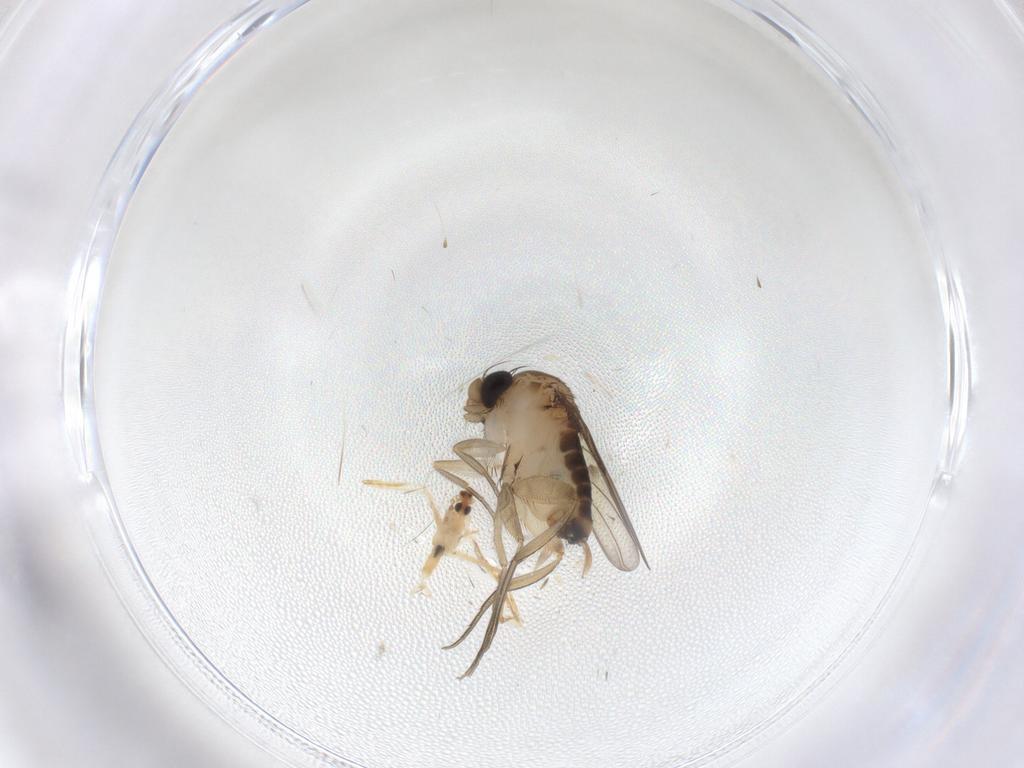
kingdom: Animalia
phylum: Arthropoda
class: Insecta
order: Diptera
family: Cecidomyiidae
